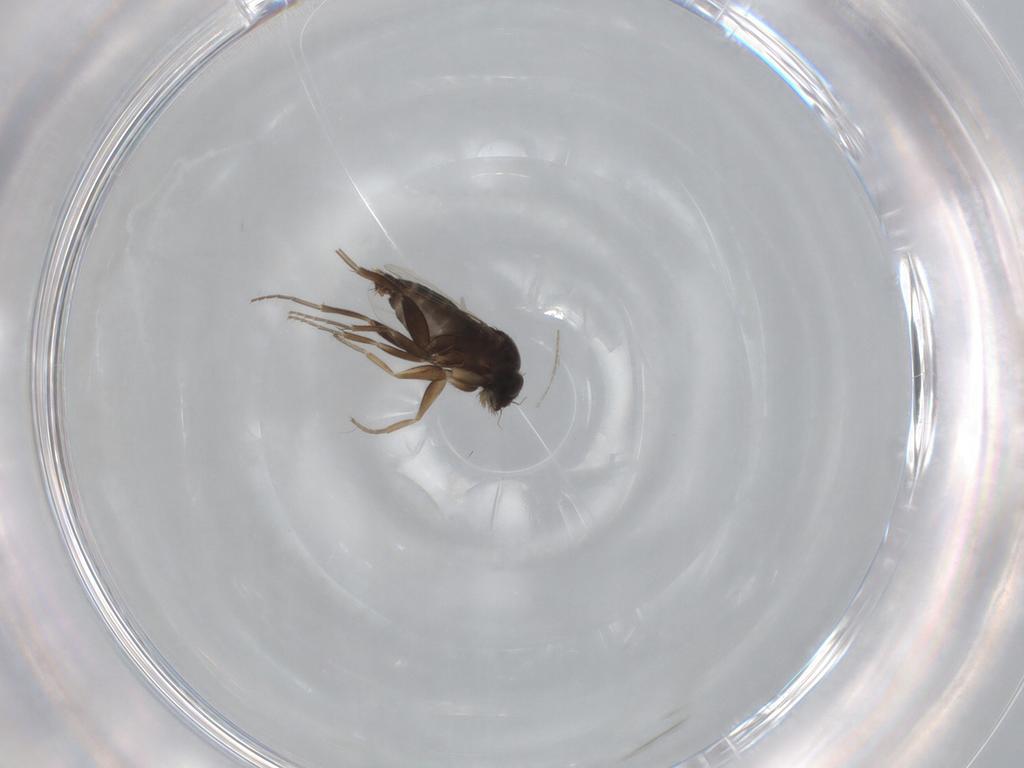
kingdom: Animalia
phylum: Arthropoda
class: Insecta
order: Diptera
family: Phoridae
